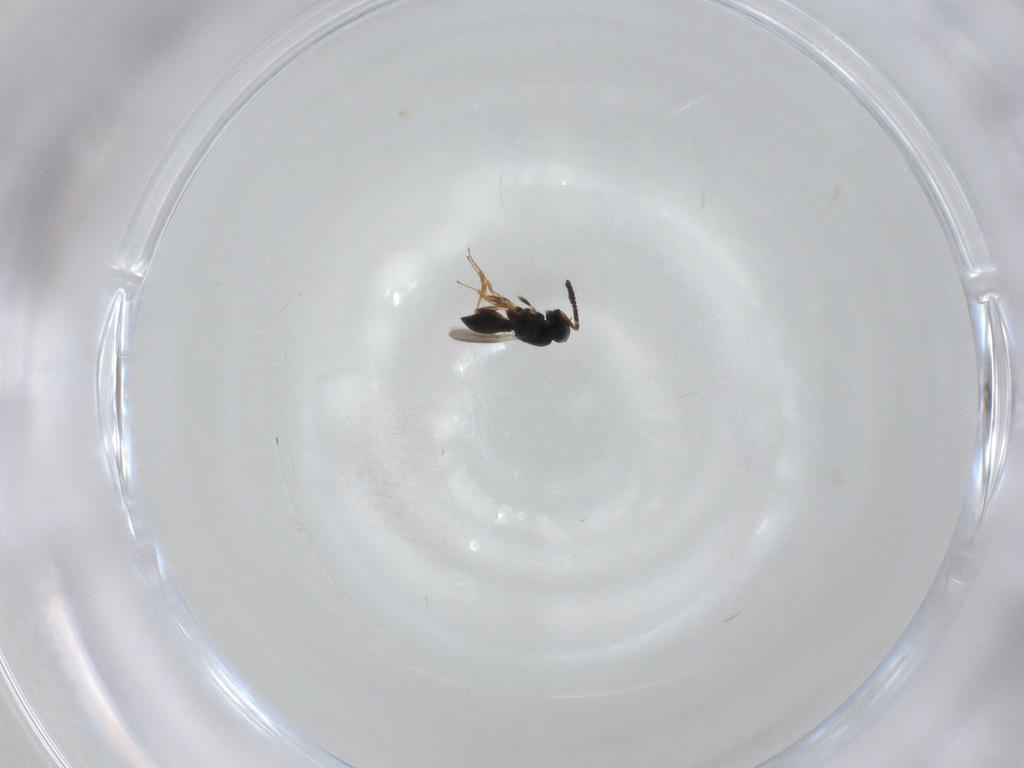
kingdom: Animalia
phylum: Arthropoda
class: Insecta
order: Hymenoptera
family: Scelionidae
